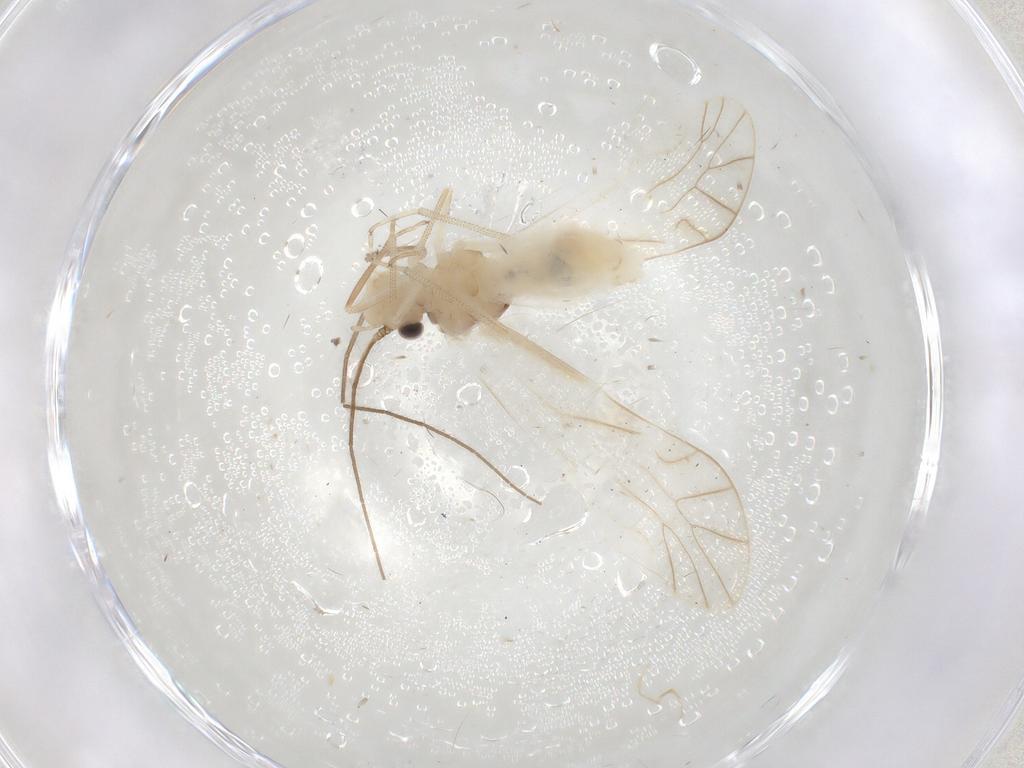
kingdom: Animalia
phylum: Arthropoda
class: Insecta
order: Psocodea
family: Caeciliusidae
